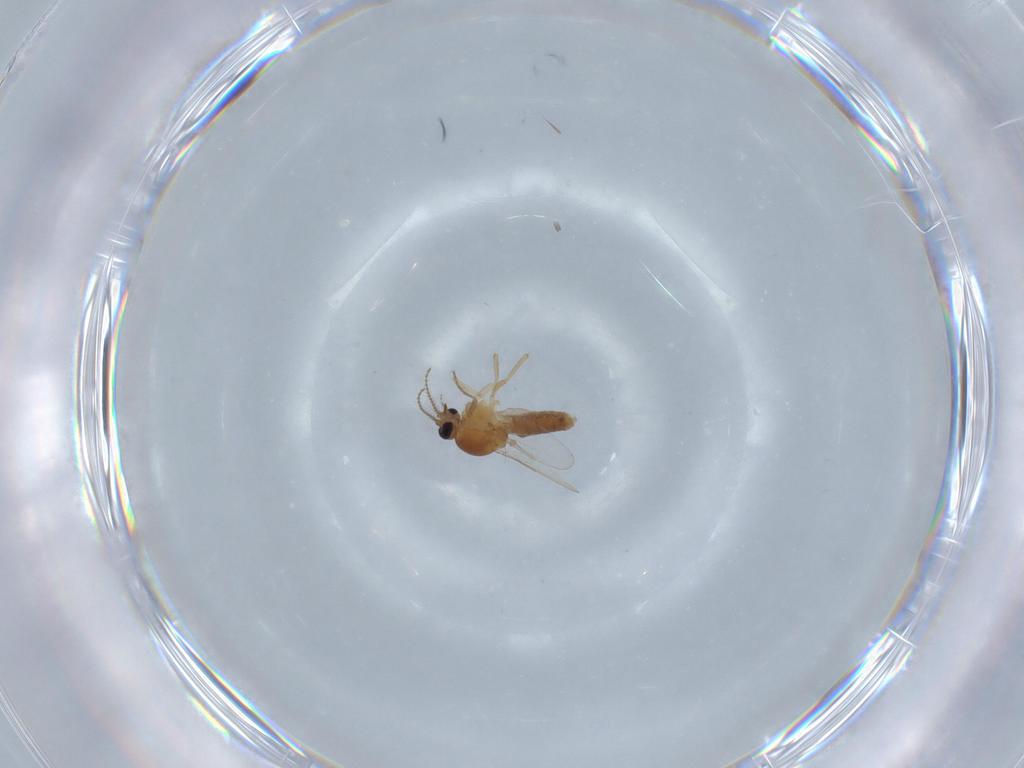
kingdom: Animalia
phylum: Arthropoda
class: Insecta
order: Diptera
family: Ceratopogonidae
